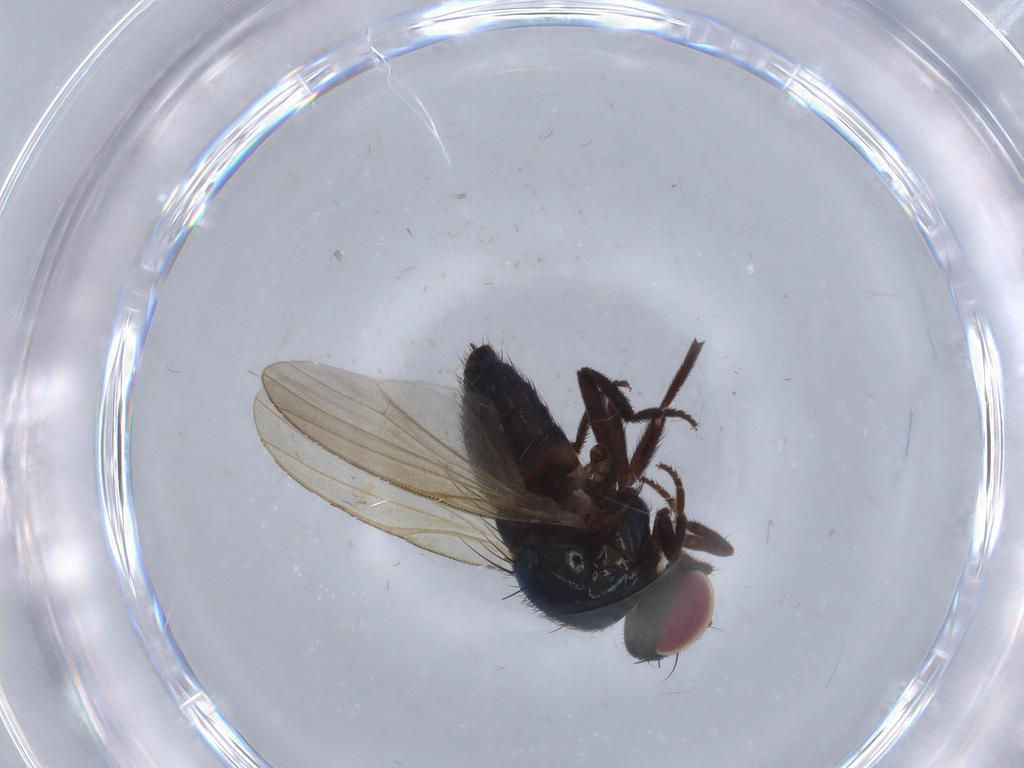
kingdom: Animalia
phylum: Arthropoda
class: Insecta
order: Diptera
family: Lonchaeidae
